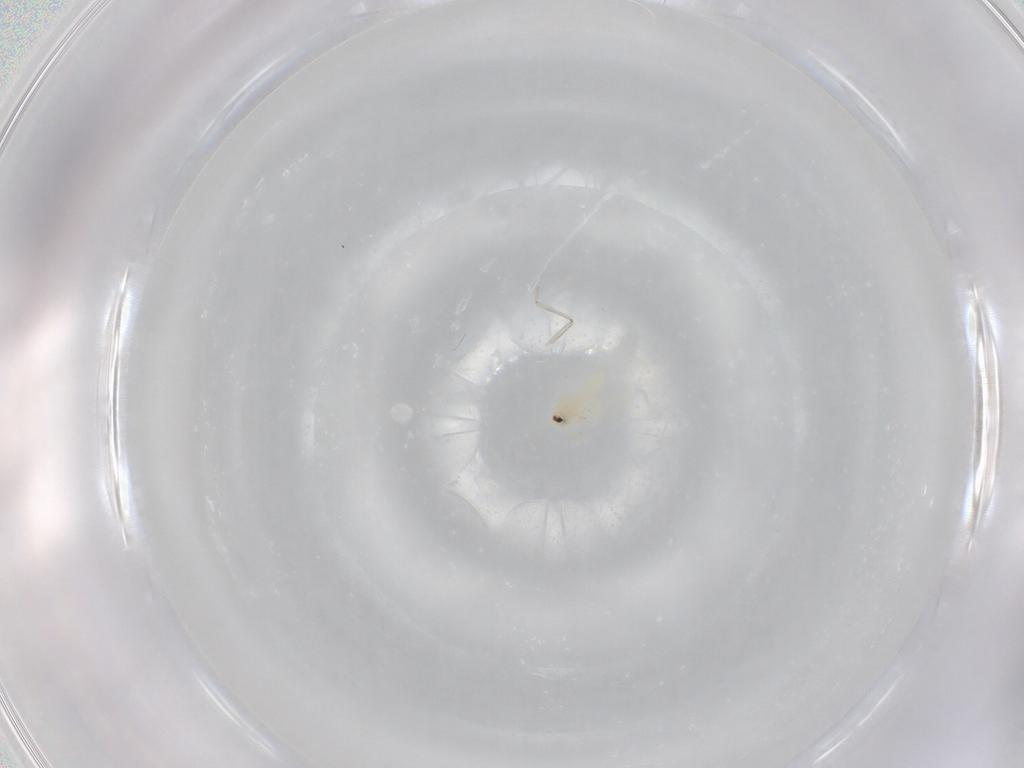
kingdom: Animalia
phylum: Arthropoda
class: Insecta
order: Hemiptera
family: Aleyrodidae
